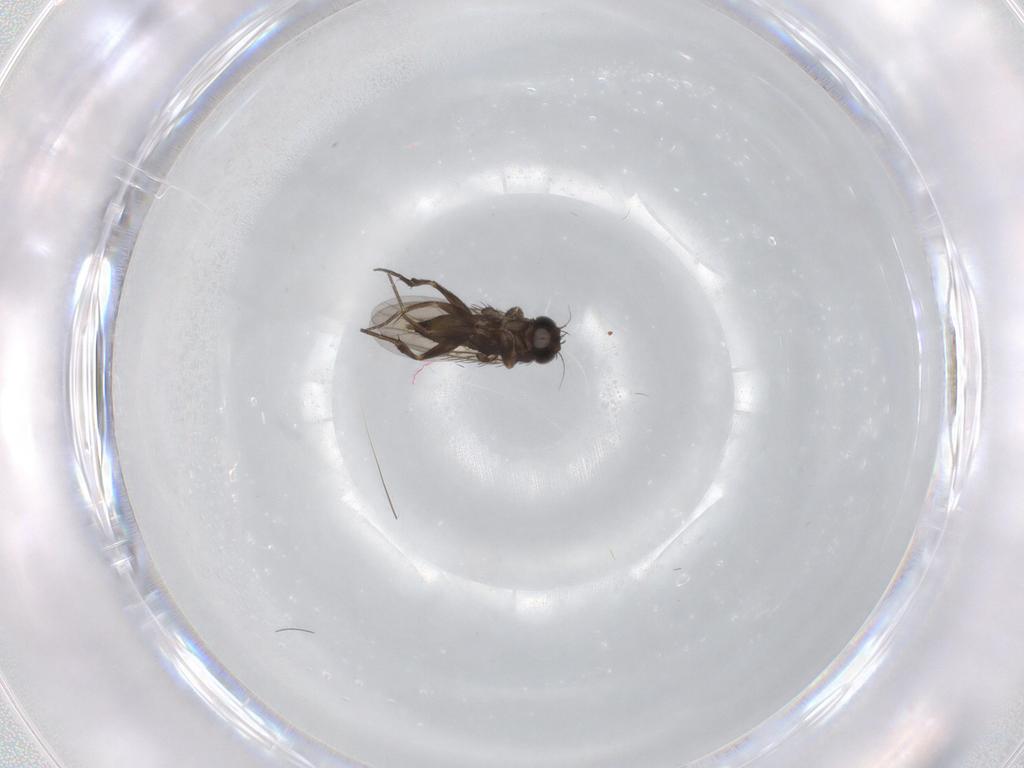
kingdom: Animalia
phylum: Arthropoda
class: Insecta
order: Diptera
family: Phoridae
